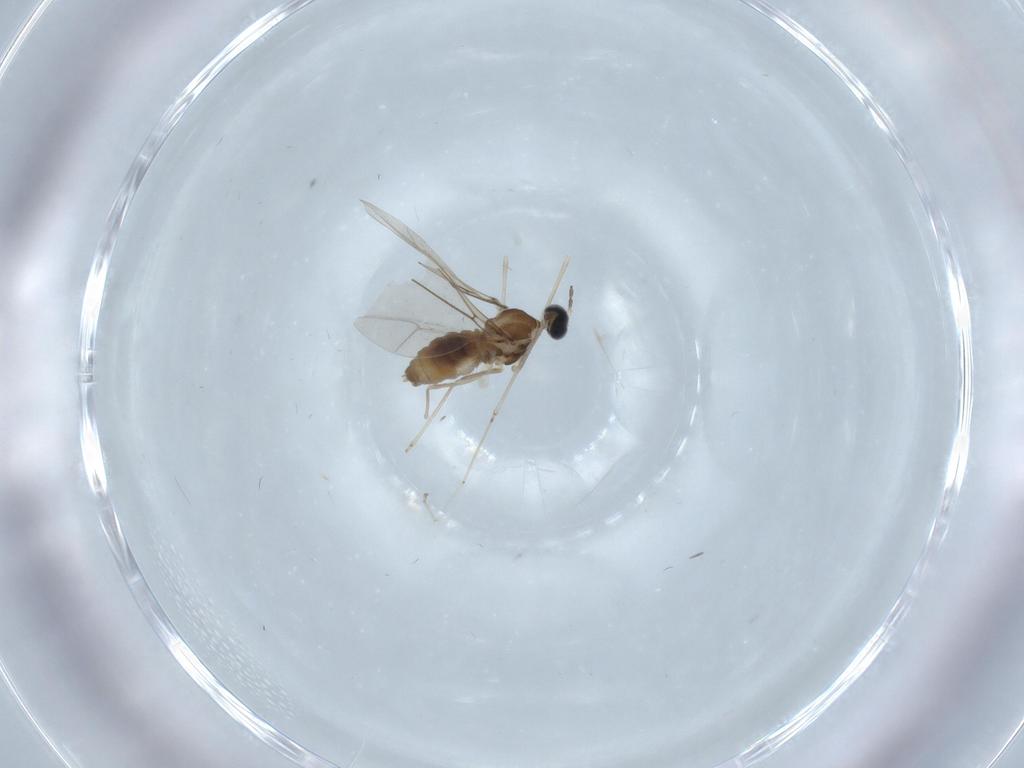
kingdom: Animalia
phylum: Arthropoda
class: Insecta
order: Diptera
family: Cecidomyiidae
